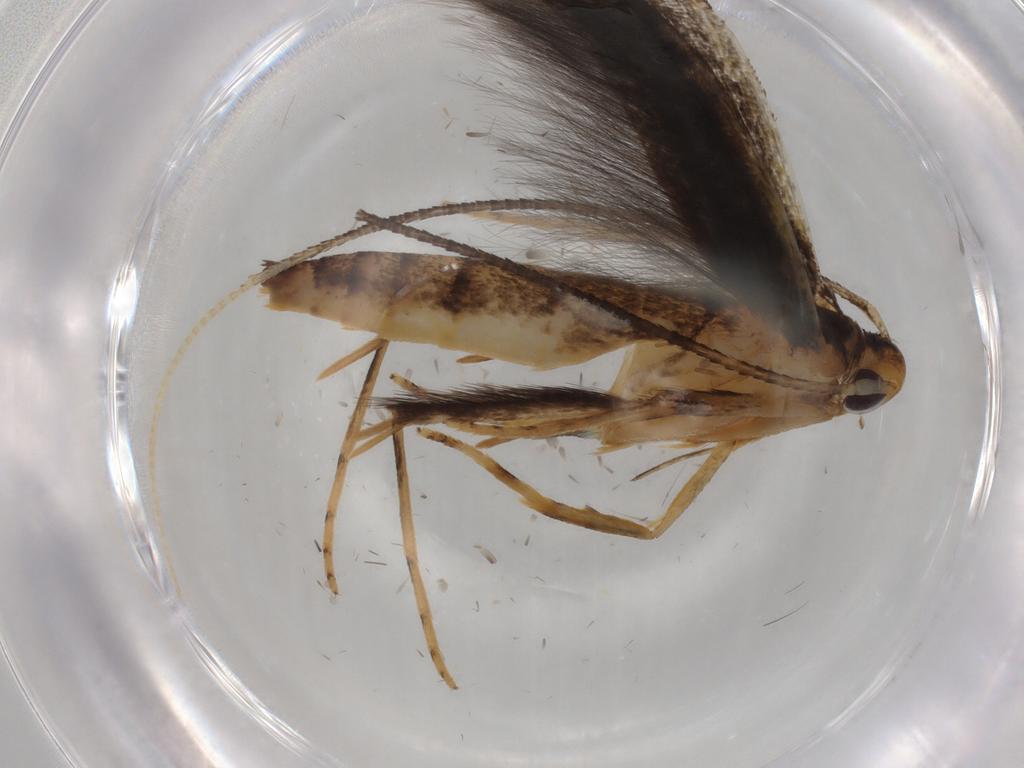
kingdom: Animalia
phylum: Arthropoda
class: Insecta
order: Lepidoptera
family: Pterolonchidae
